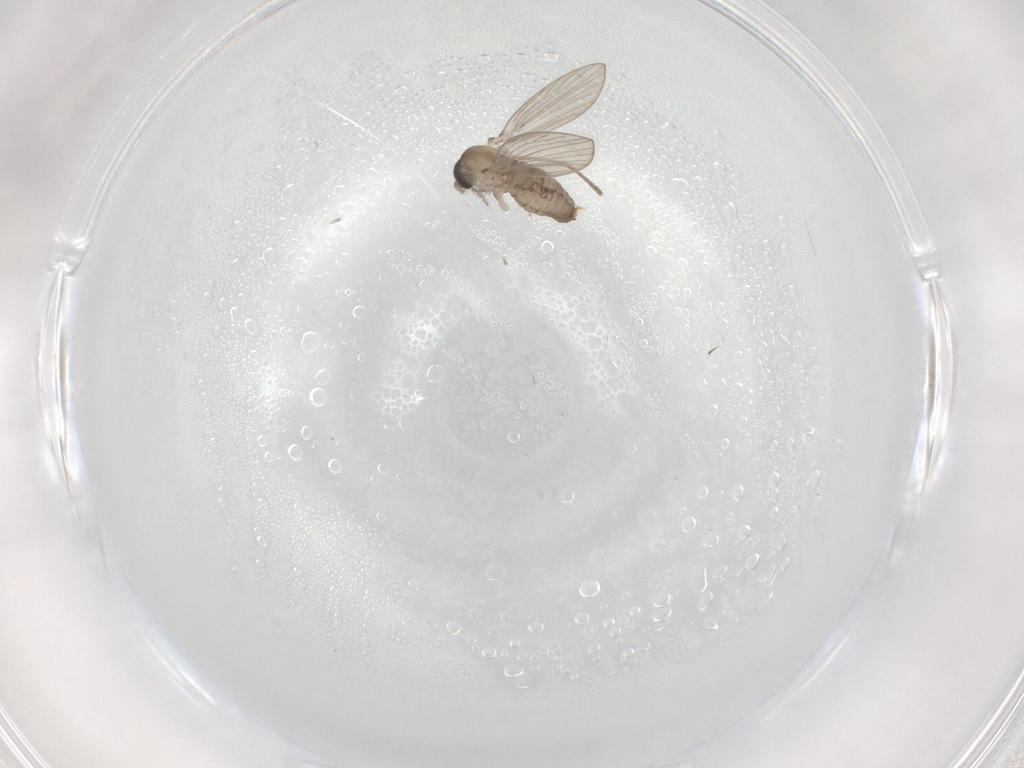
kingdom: Animalia
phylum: Arthropoda
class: Insecta
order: Diptera
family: Psychodidae
